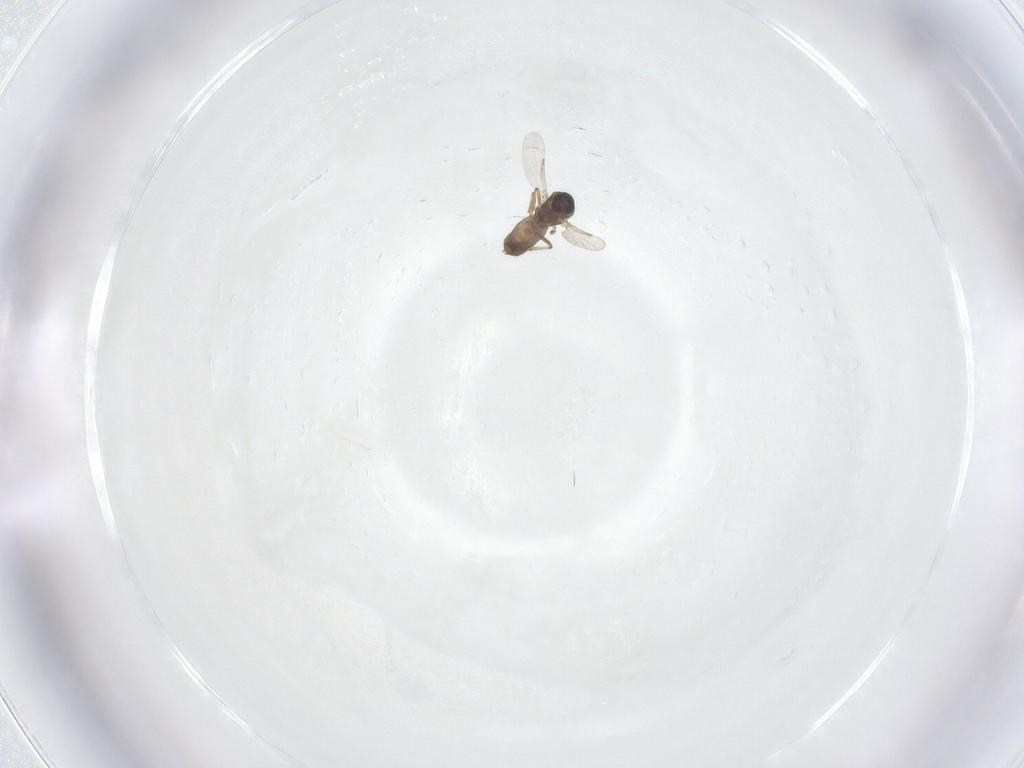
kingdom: Animalia
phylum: Arthropoda
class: Insecta
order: Diptera
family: Ceratopogonidae
